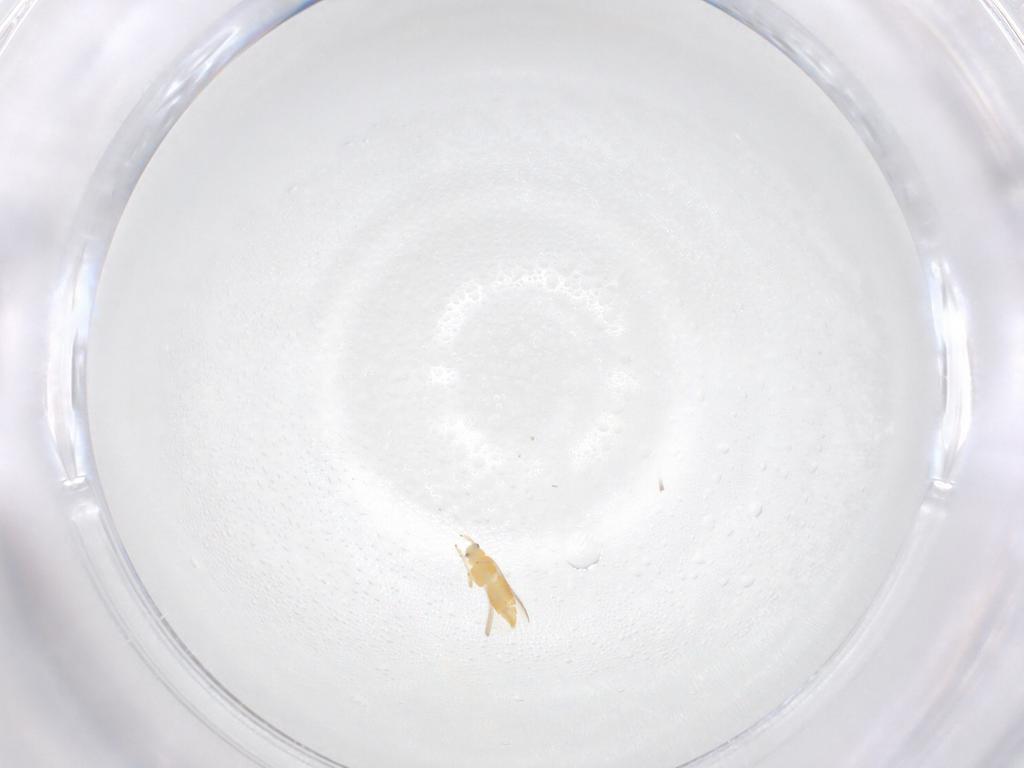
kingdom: Animalia
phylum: Arthropoda
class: Insecta
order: Thysanoptera
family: Thripidae
